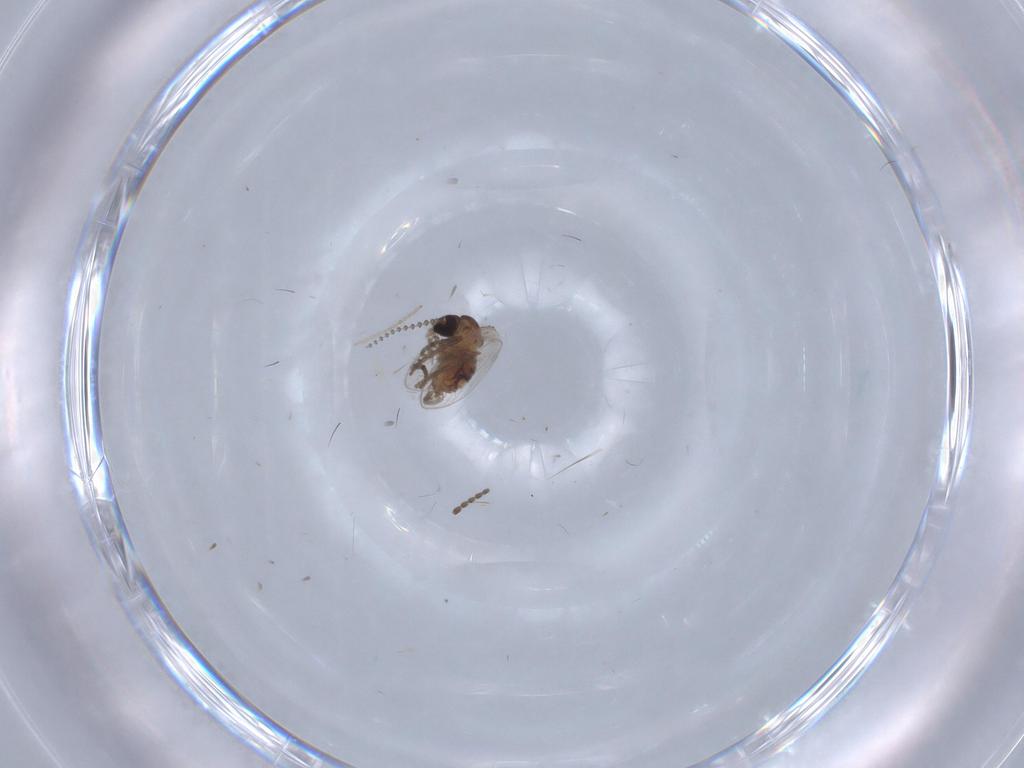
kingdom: Animalia
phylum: Arthropoda
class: Insecta
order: Diptera
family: Psychodidae
